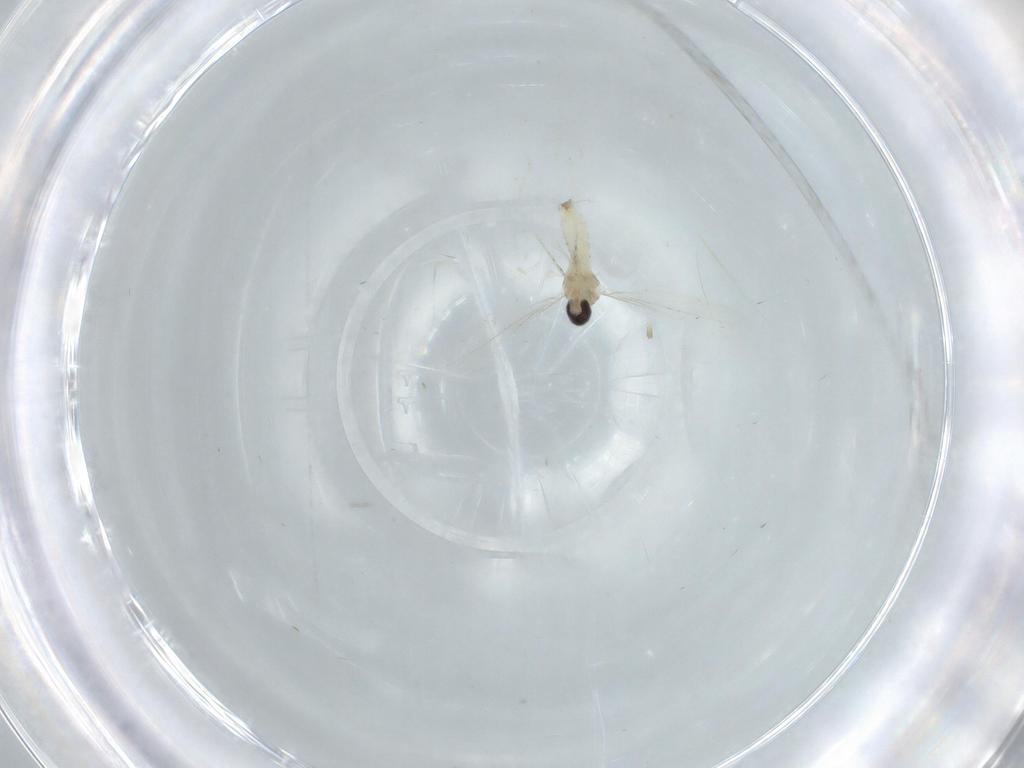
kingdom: Animalia
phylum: Arthropoda
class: Insecta
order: Diptera
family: Cecidomyiidae
